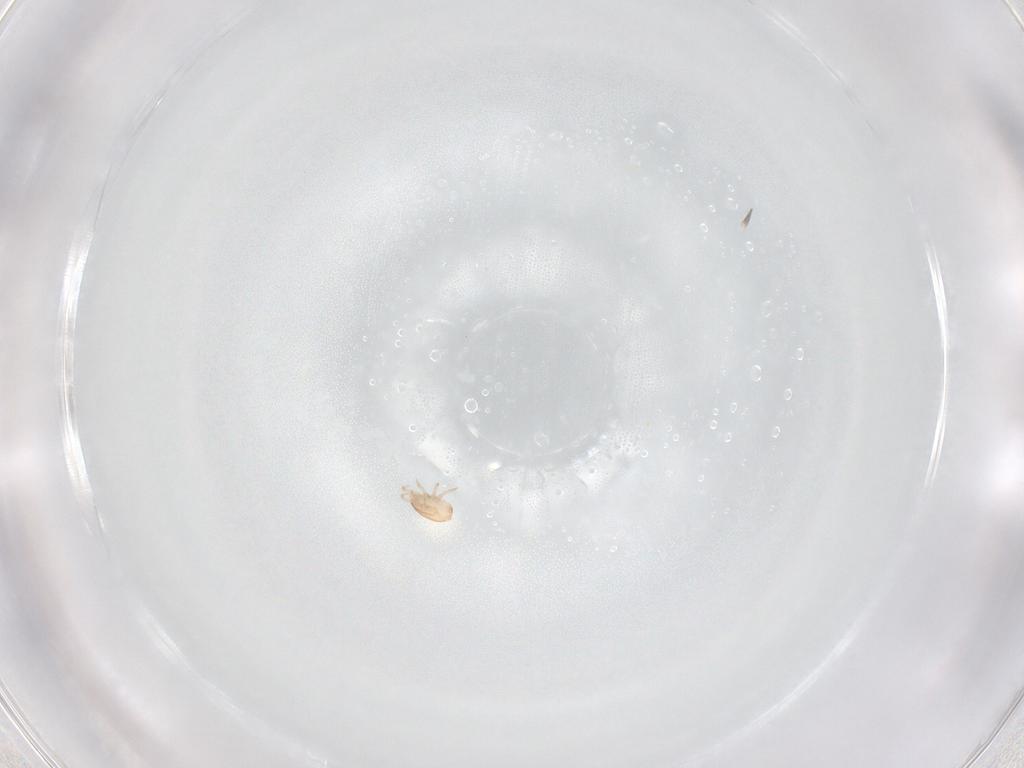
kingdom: Animalia
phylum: Arthropoda
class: Arachnida
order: Mesostigmata
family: Ascidae
